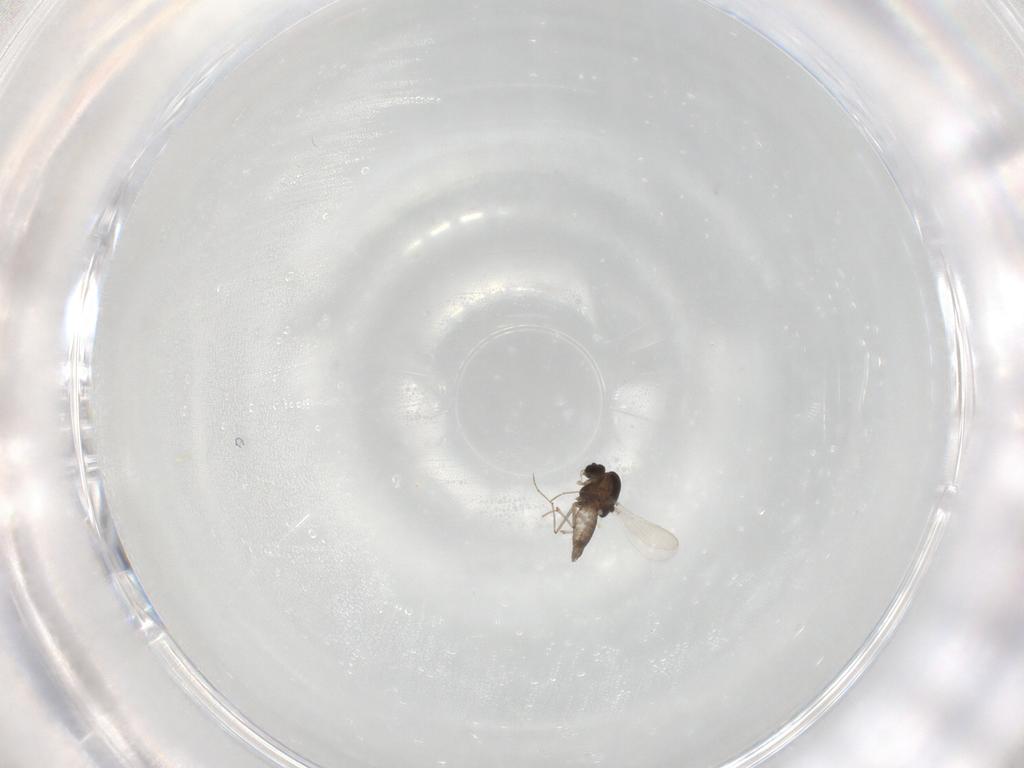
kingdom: Animalia
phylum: Arthropoda
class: Insecta
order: Diptera
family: Chironomidae
